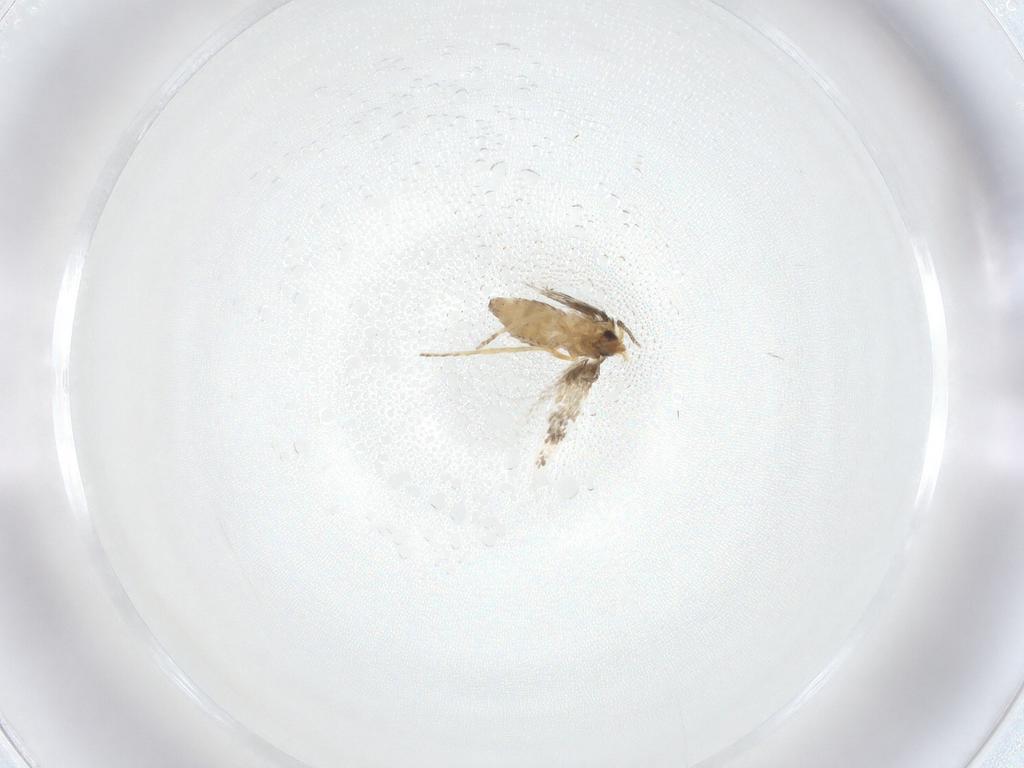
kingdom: Animalia
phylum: Arthropoda
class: Insecta
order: Lepidoptera
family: Nepticulidae
